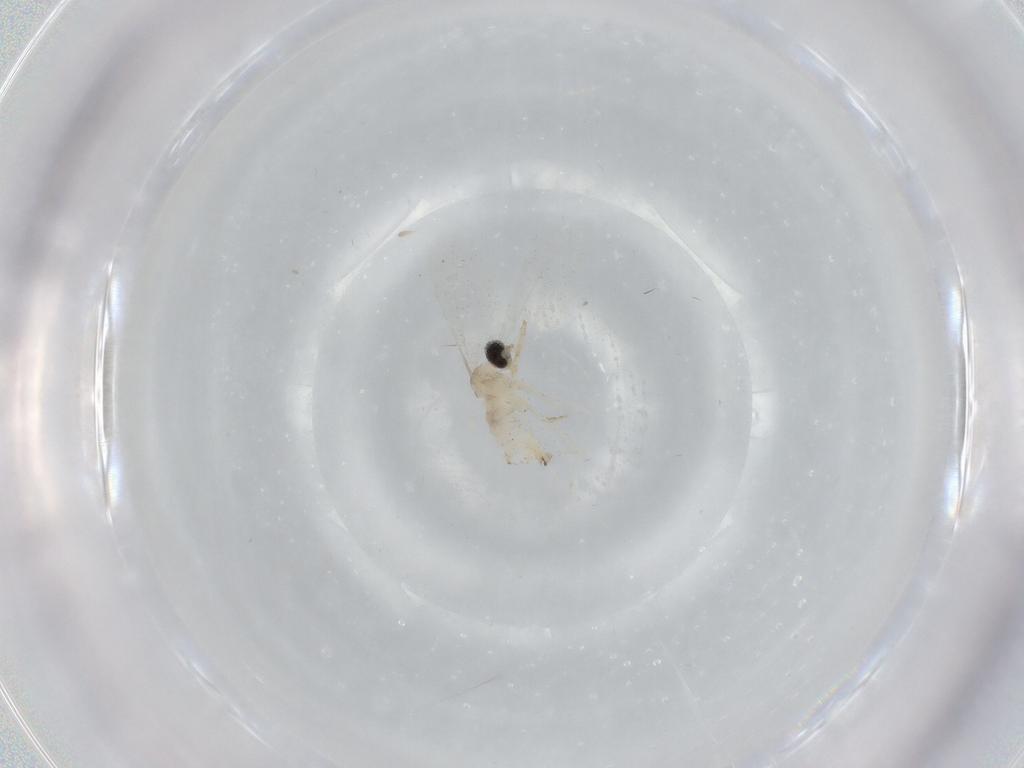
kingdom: Animalia
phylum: Arthropoda
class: Insecta
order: Diptera
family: Cecidomyiidae
